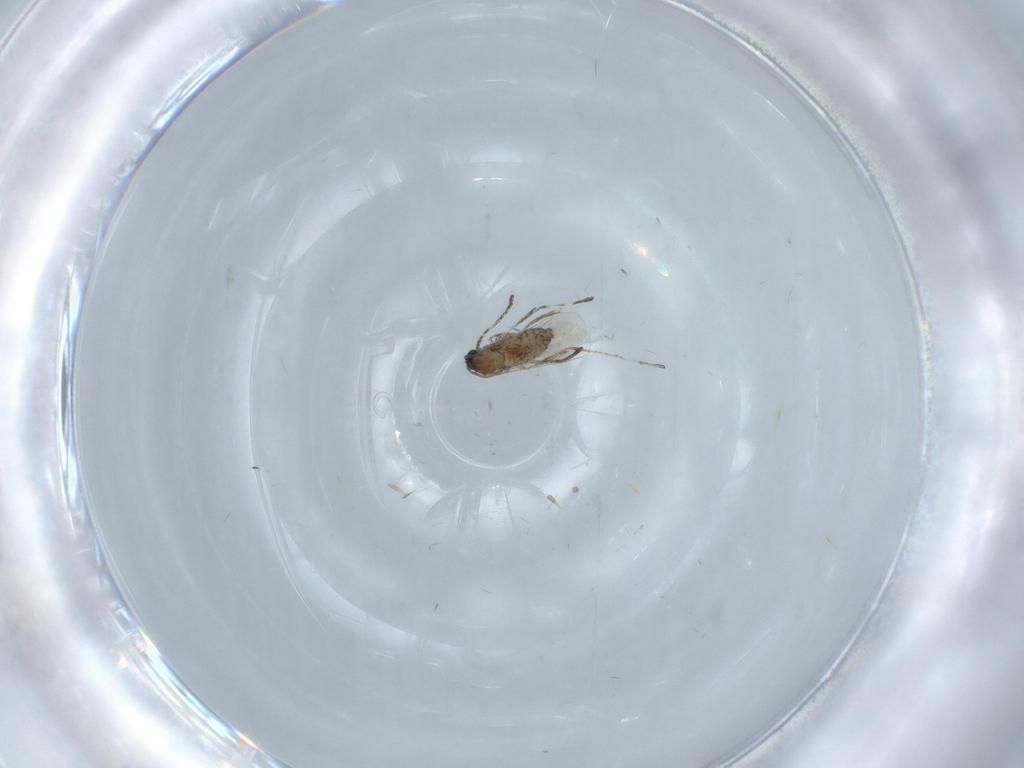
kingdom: Animalia
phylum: Arthropoda
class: Insecta
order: Diptera
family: Cecidomyiidae
